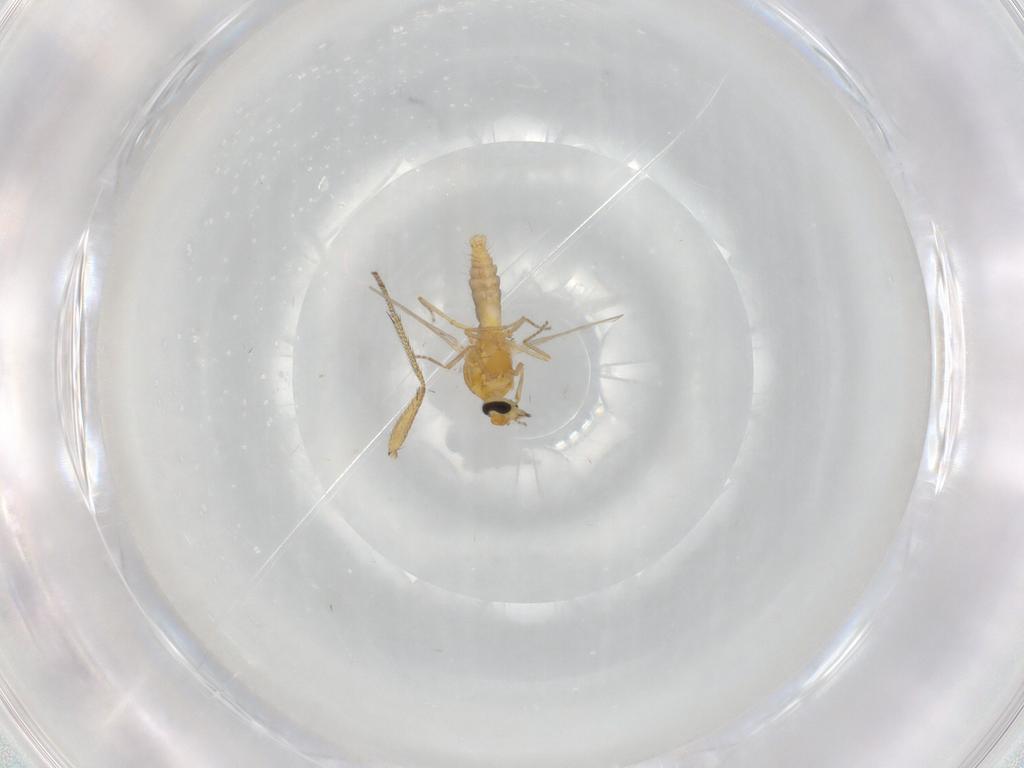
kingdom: Animalia
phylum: Arthropoda
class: Insecta
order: Diptera
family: Ceratopogonidae
